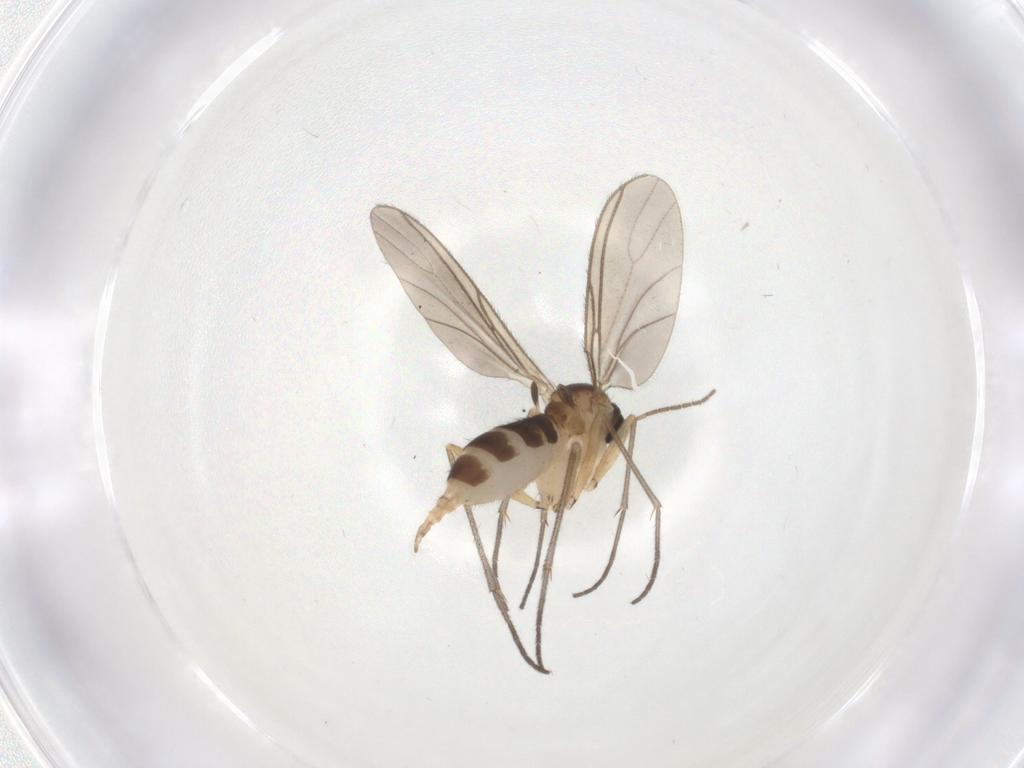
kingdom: Animalia
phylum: Arthropoda
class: Insecta
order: Diptera
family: Sciaridae
